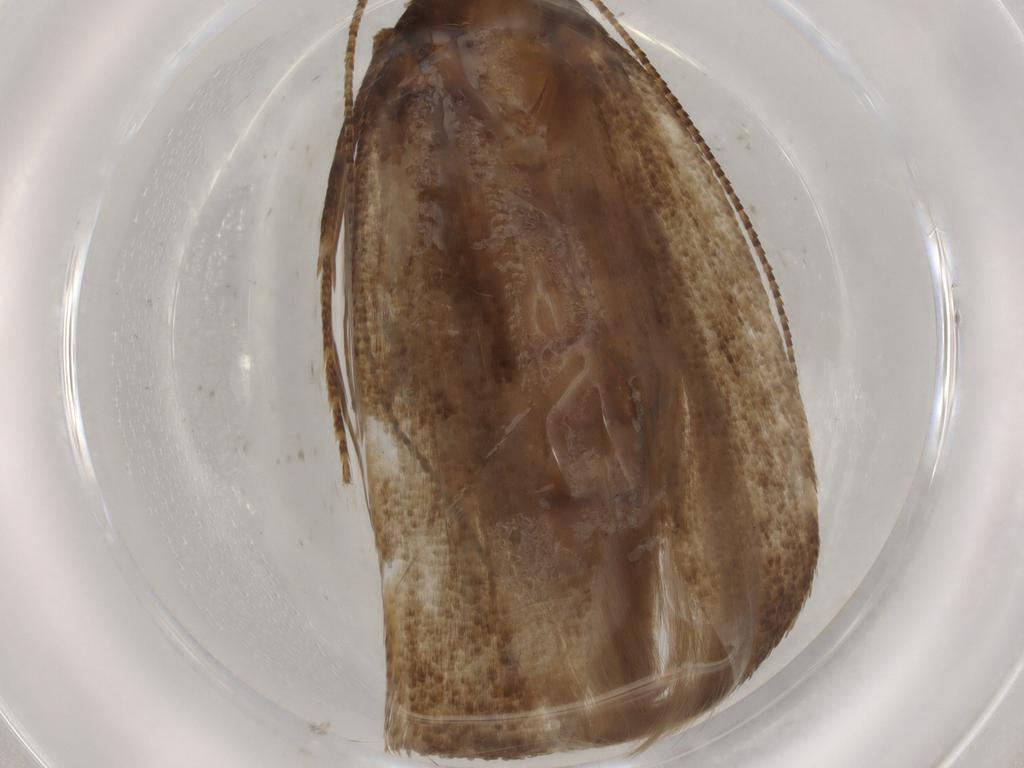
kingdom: Animalia
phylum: Arthropoda
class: Insecta
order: Lepidoptera
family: Erebidae
